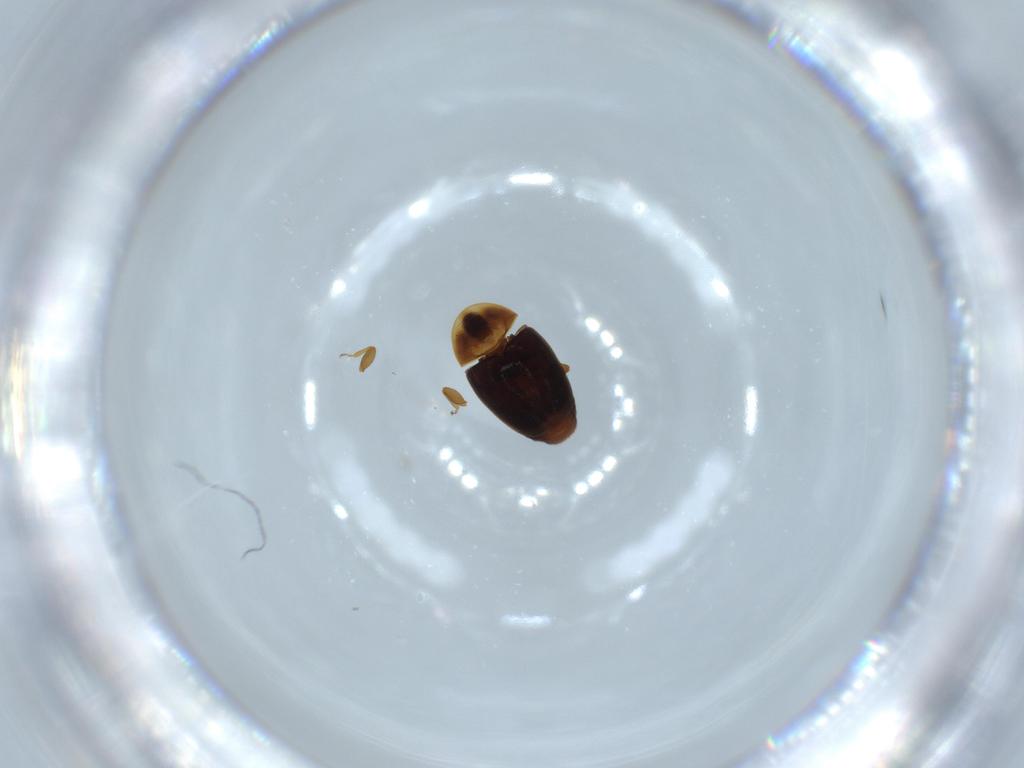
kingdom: Animalia
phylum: Arthropoda
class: Insecta
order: Coleoptera
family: Corylophidae
